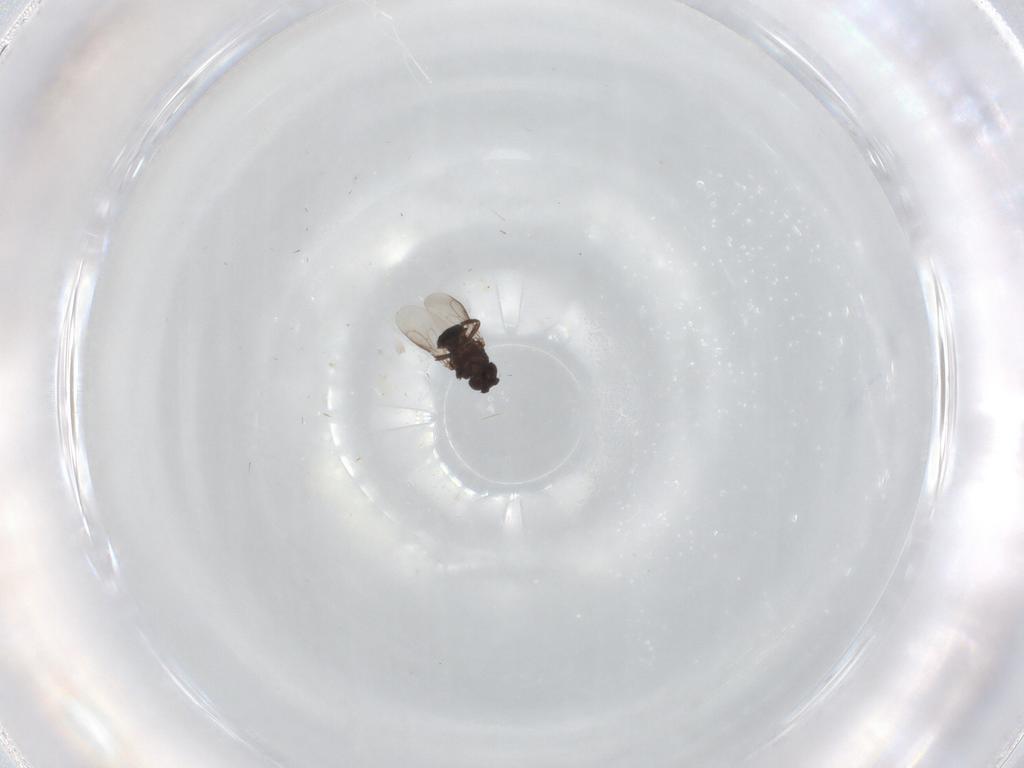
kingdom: Animalia
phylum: Arthropoda
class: Insecta
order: Diptera
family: Sphaeroceridae
